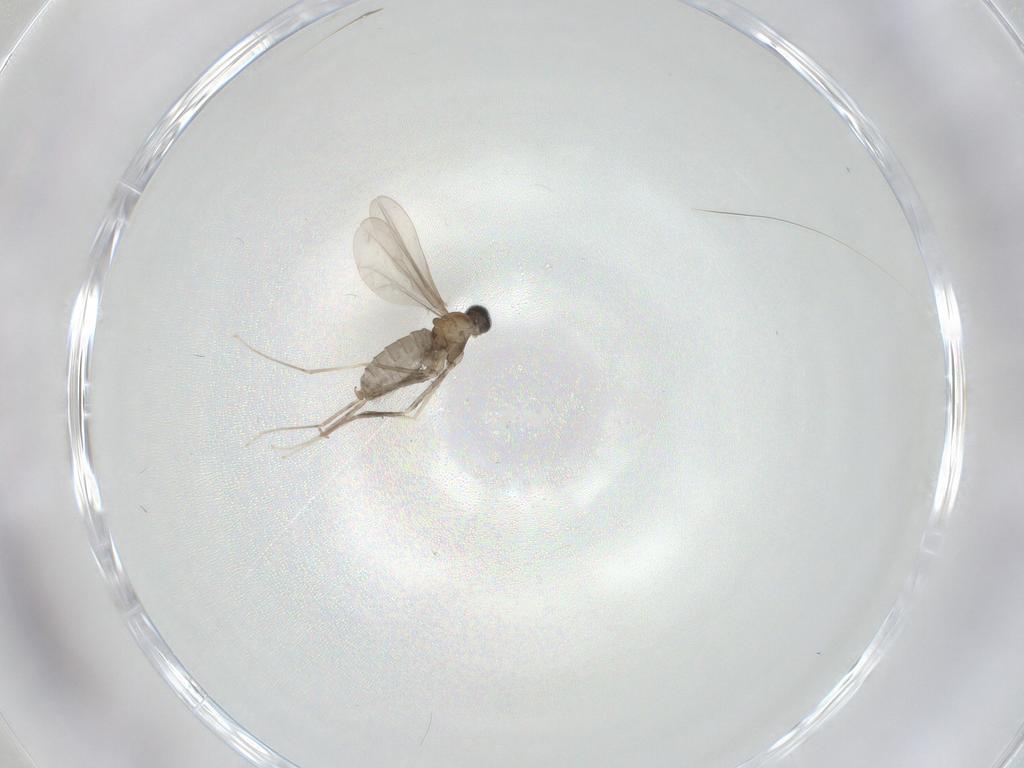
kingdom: Animalia
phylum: Arthropoda
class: Insecta
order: Diptera
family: Cecidomyiidae
